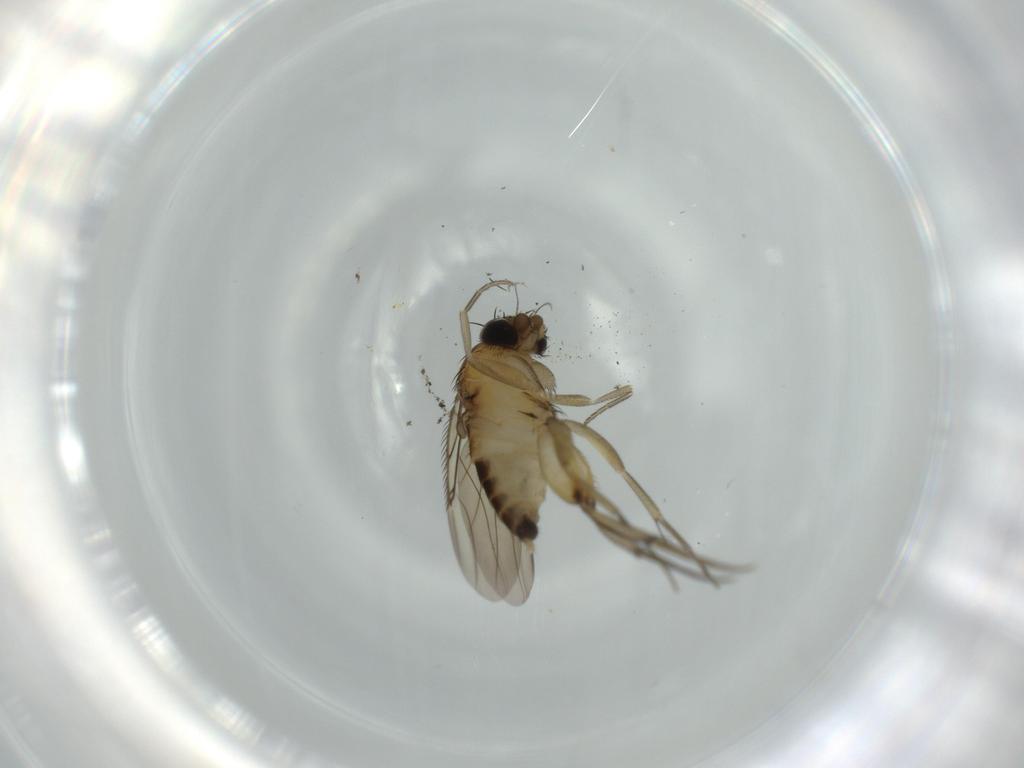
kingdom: Animalia
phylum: Arthropoda
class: Insecta
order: Diptera
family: Phoridae
